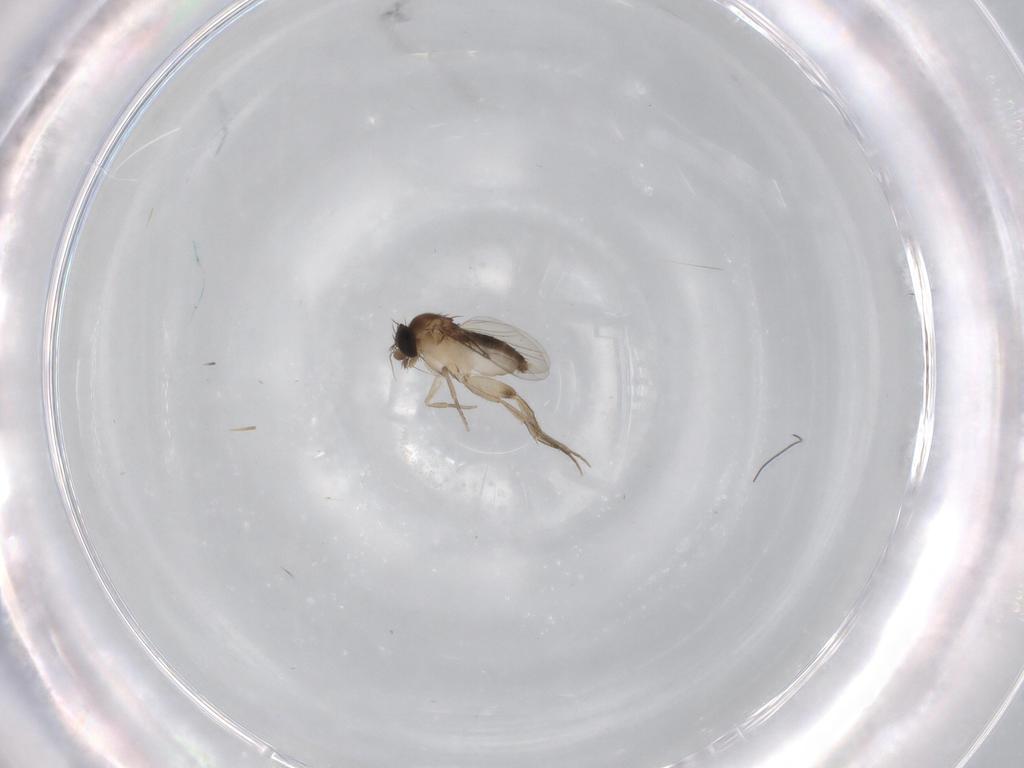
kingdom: Animalia
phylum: Arthropoda
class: Insecta
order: Diptera
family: Phoridae
